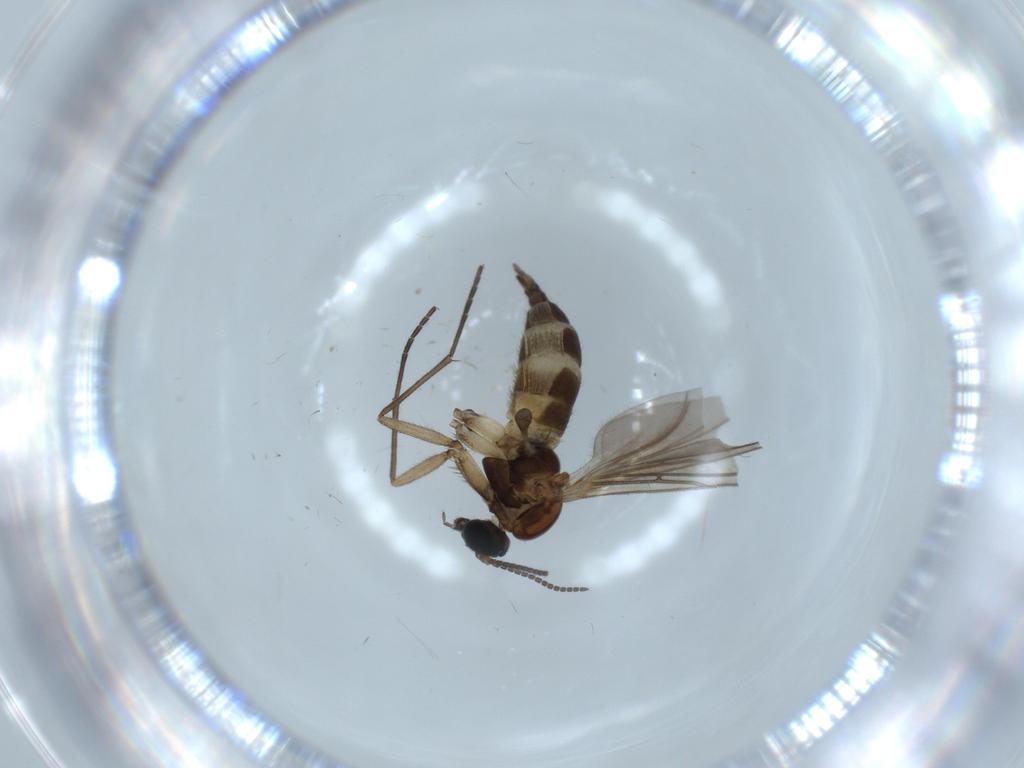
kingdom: Animalia
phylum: Arthropoda
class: Insecta
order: Diptera
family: Sciaridae
